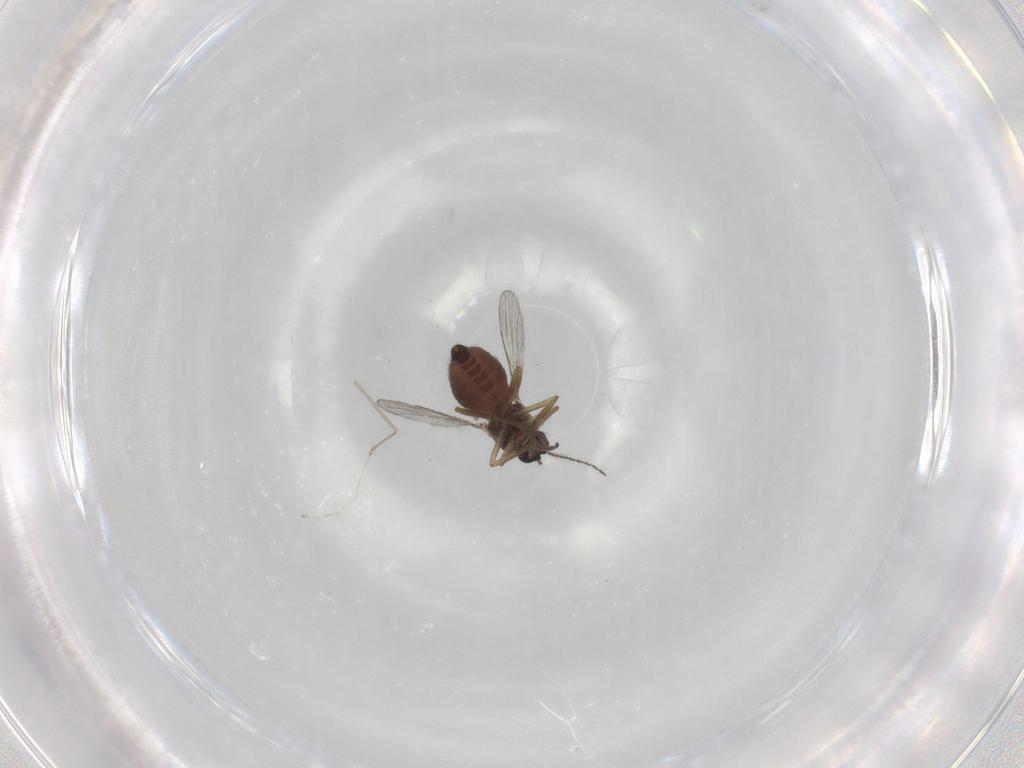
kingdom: Animalia
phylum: Arthropoda
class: Insecta
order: Diptera
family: Cecidomyiidae
